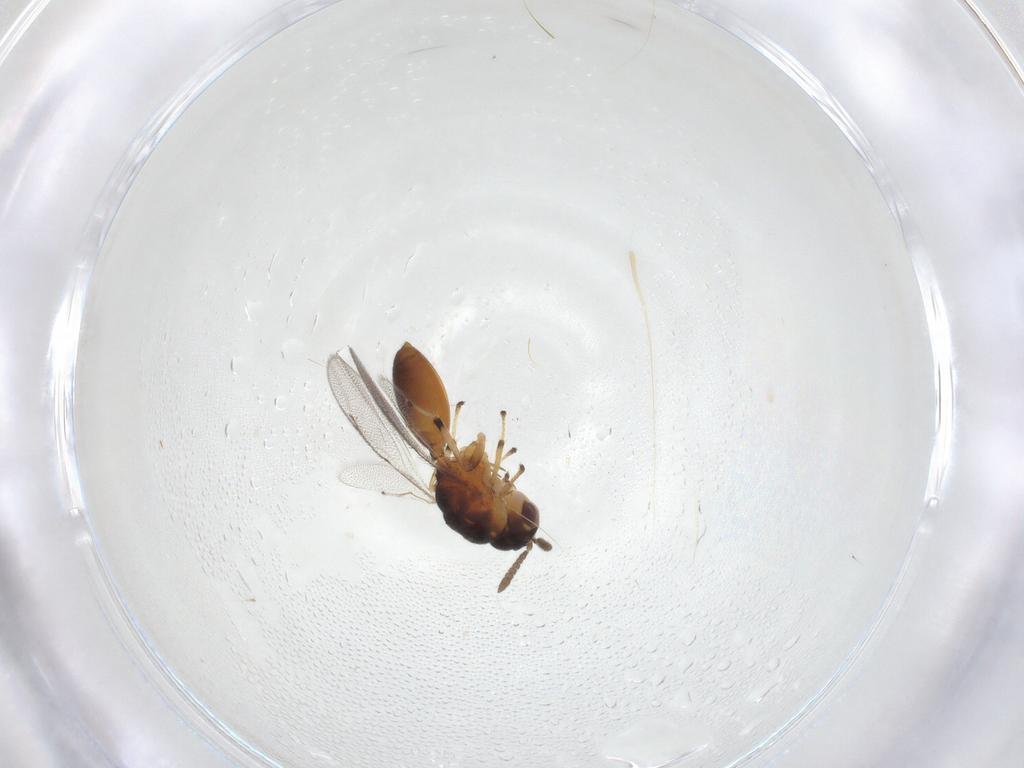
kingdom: Animalia
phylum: Arthropoda
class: Insecta
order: Hymenoptera
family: Eurytomidae
